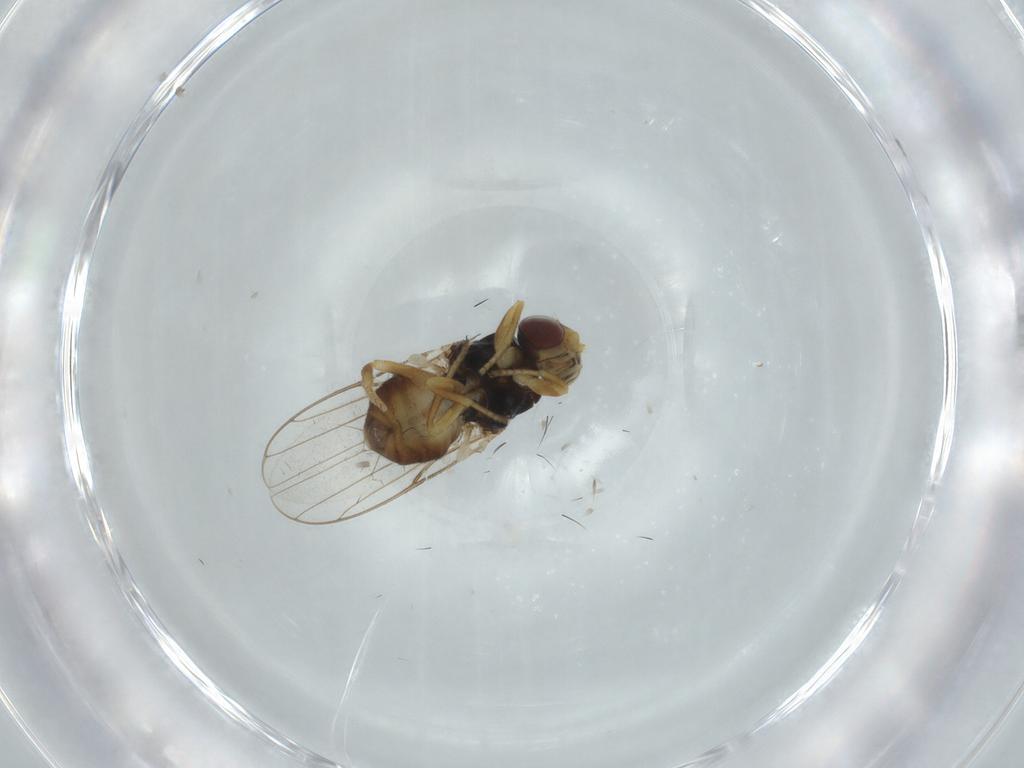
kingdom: Animalia
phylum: Arthropoda
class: Insecta
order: Diptera
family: Chloropidae
